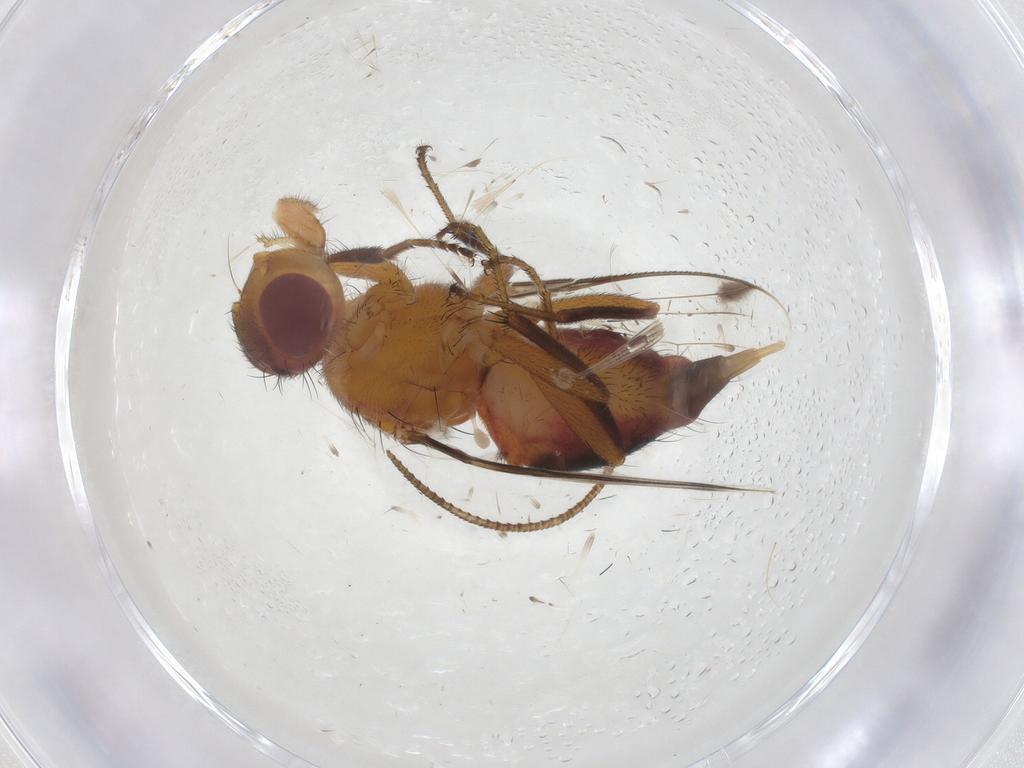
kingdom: Animalia
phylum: Arthropoda
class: Insecta
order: Diptera
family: Richardiidae
